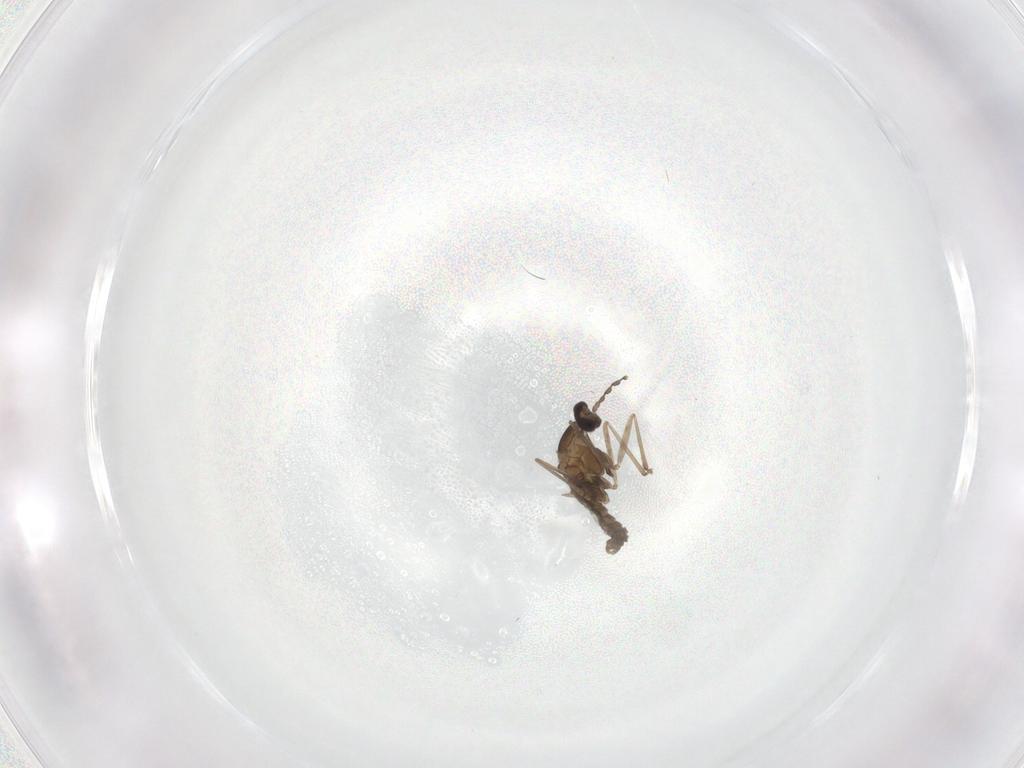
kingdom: Animalia
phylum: Arthropoda
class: Insecta
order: Diptera
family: Cecidomyiidae
